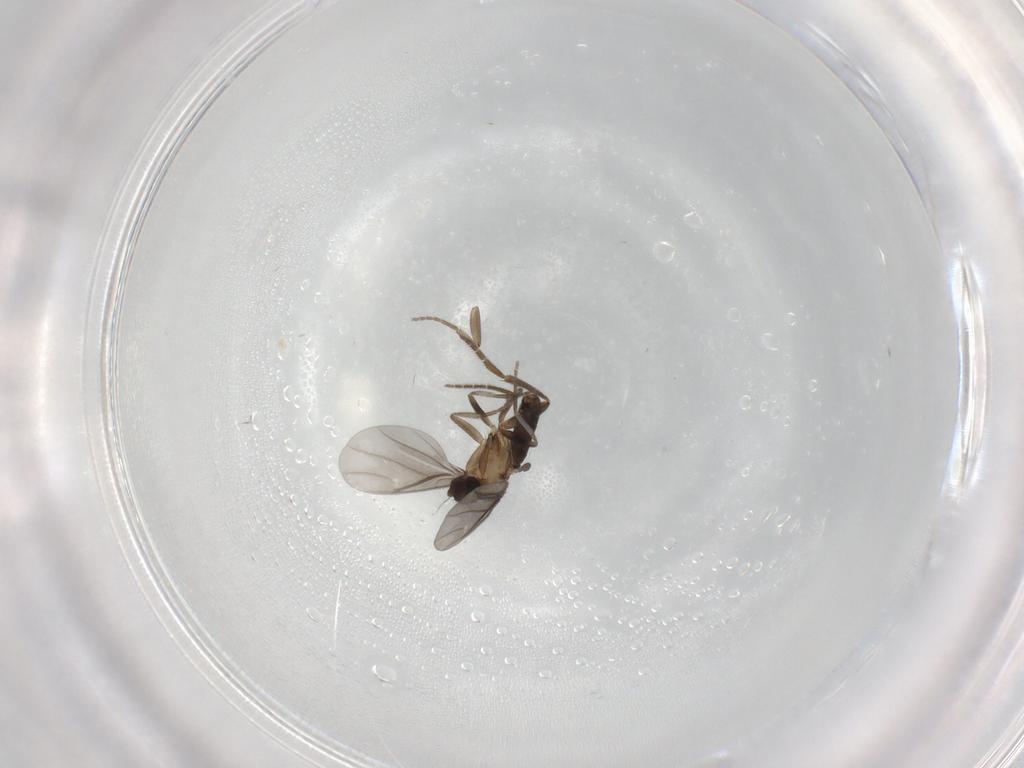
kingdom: Animalia
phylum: Arthropoda
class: Insecta
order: Diptera
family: Phoridae
